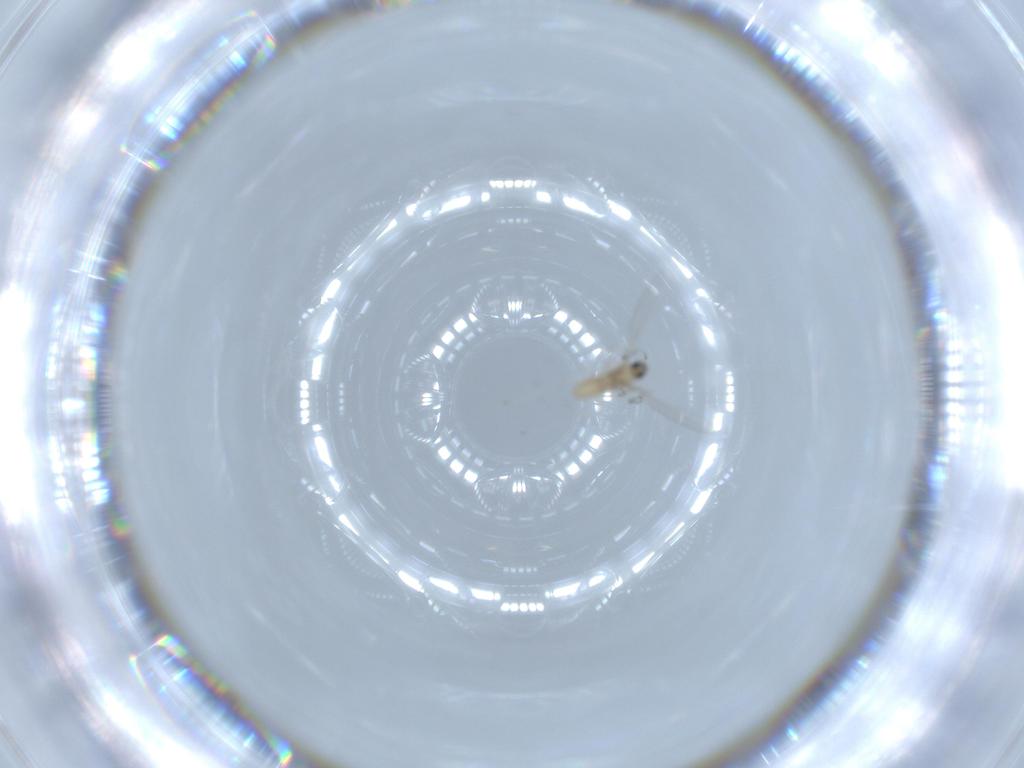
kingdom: Animalia
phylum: Arthropoda
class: Insecta
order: Diptera
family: Cecidomyiidae
